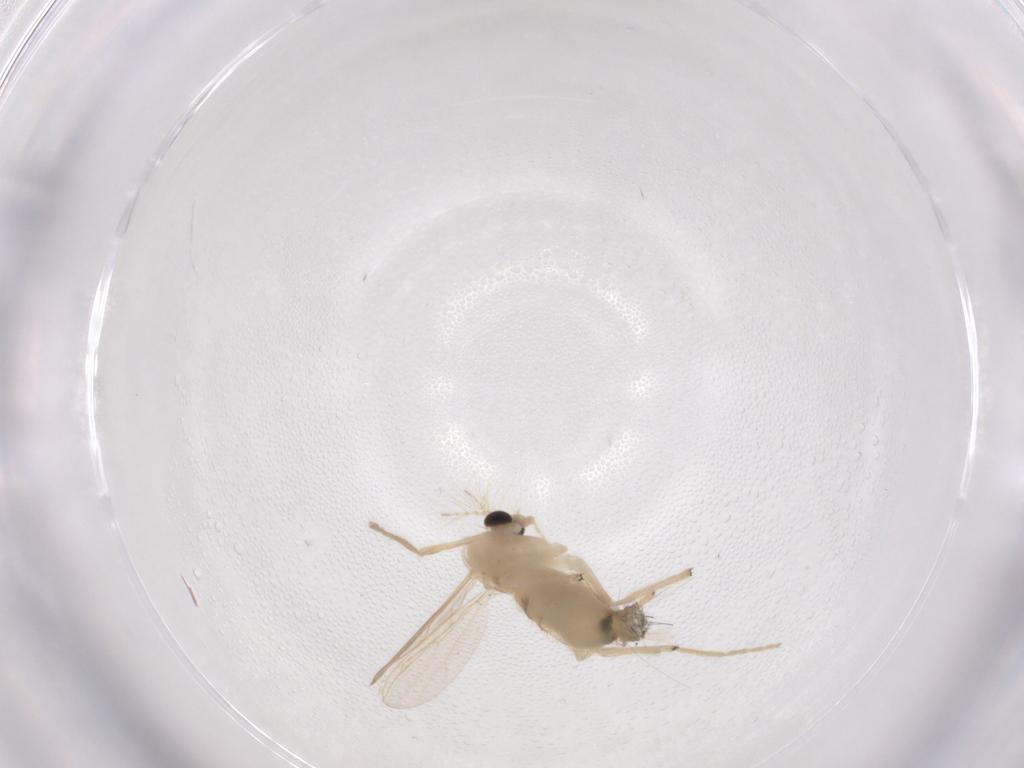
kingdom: Animalia
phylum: Arthropoda
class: Insecta
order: Diptera
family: Chironomidae
